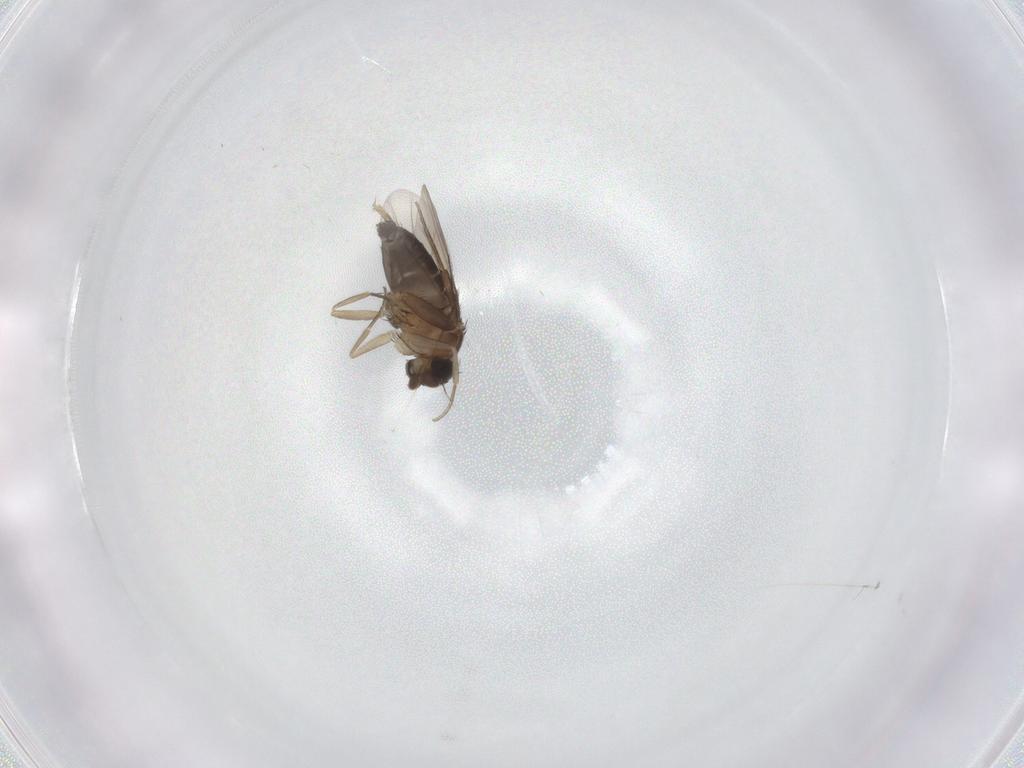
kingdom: Animalia
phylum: Arthropoda
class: Insecta
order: Diptera
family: Phoridae
